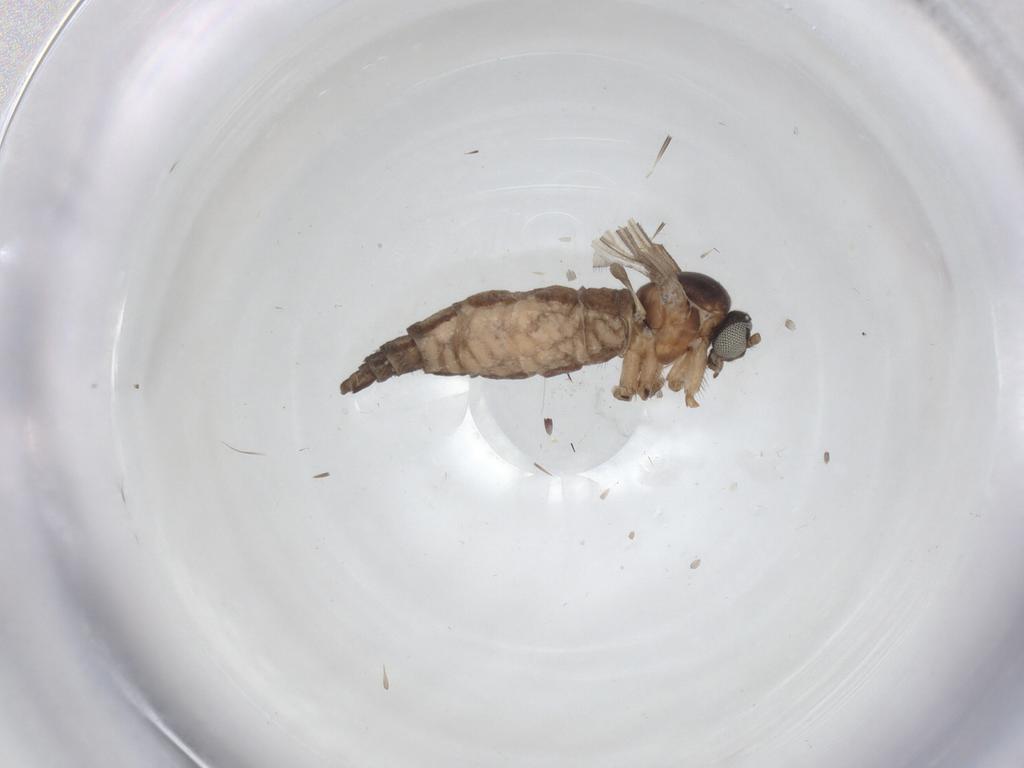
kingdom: Animalia
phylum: Arthropoda
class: Insecta
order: Diptera
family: Sciaridae
